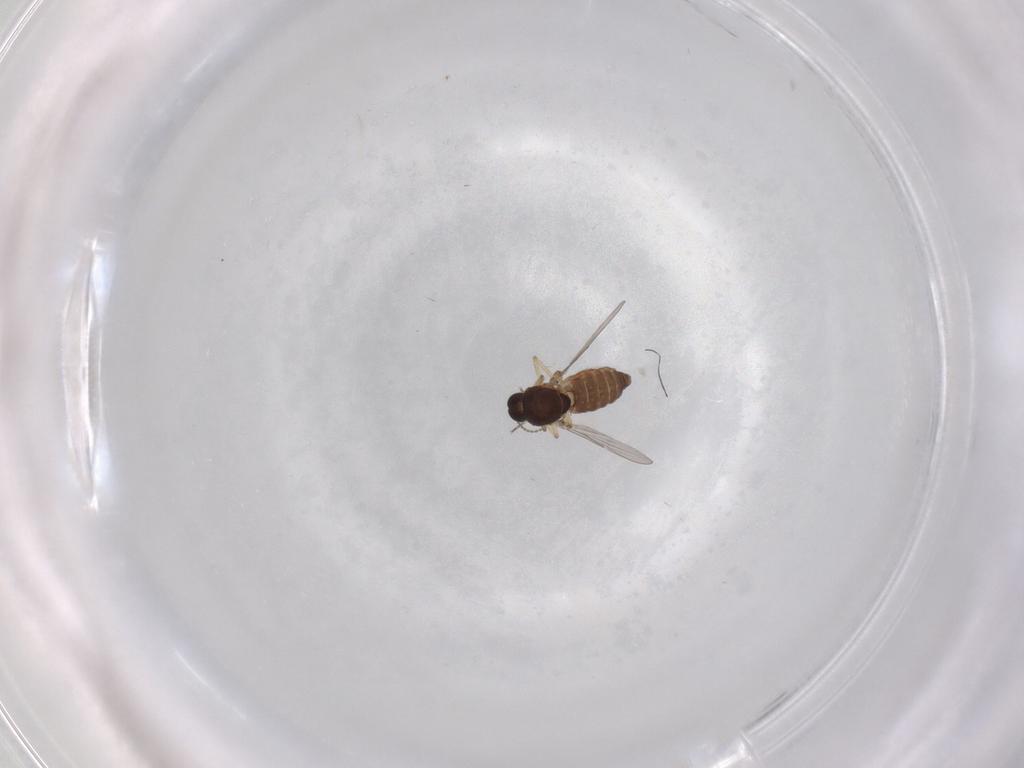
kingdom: Animalia
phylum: Arthropoda
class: Insecta
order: Diptera
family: Ceratopogonidae
